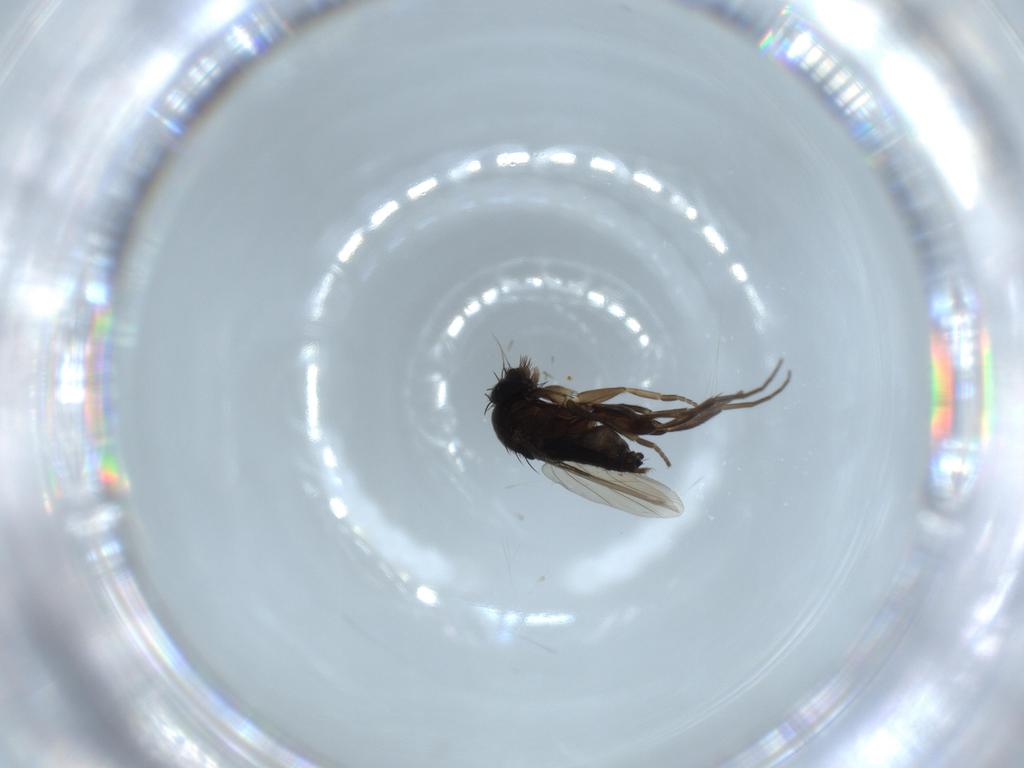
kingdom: Animalia
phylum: Arthropoda
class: Insecta
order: Diptera
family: Phoridae
